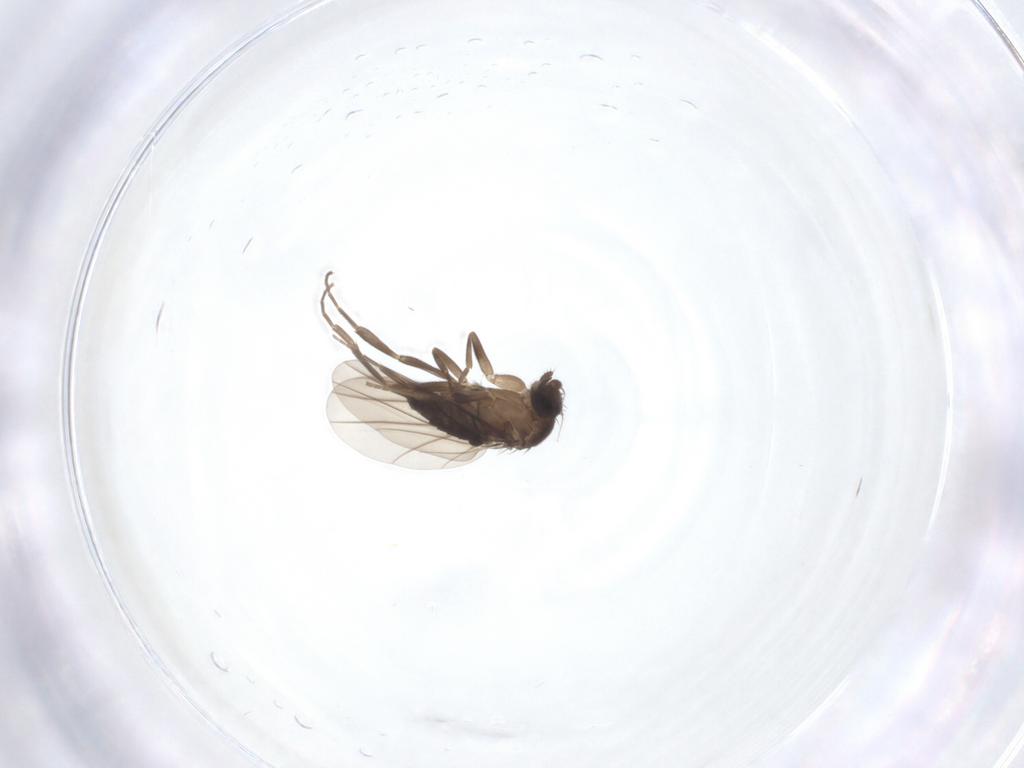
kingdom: Animalia
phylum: Arthropoda
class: Insecta
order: Diptera
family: Phoridae
